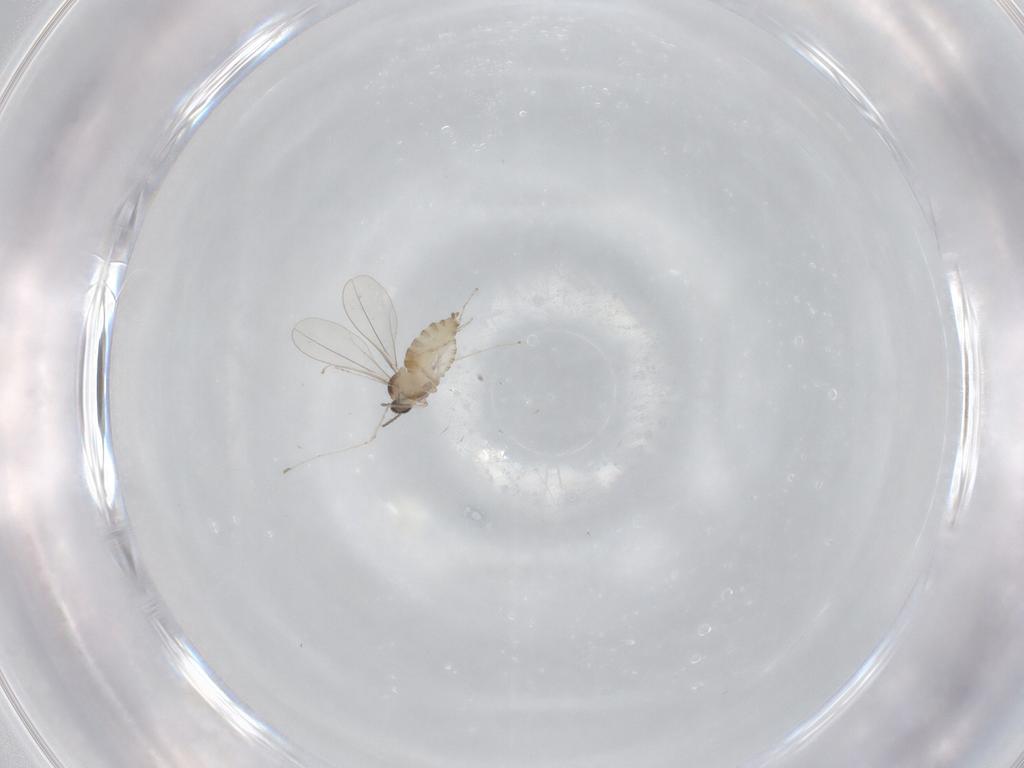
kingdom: Animalia
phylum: Arthropoda
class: Insecta
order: Diptera
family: Cecidomyiidae
